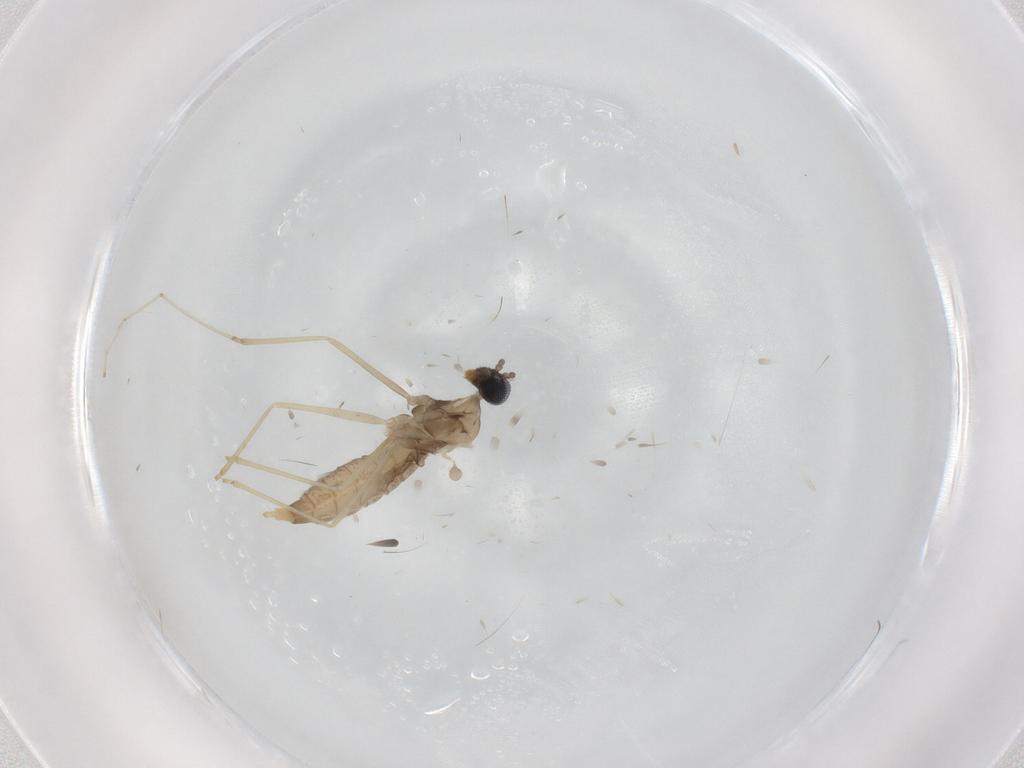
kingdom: Animalia
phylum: Arthropoda
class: Insecta
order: Diptera
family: Cecidomyiidae
